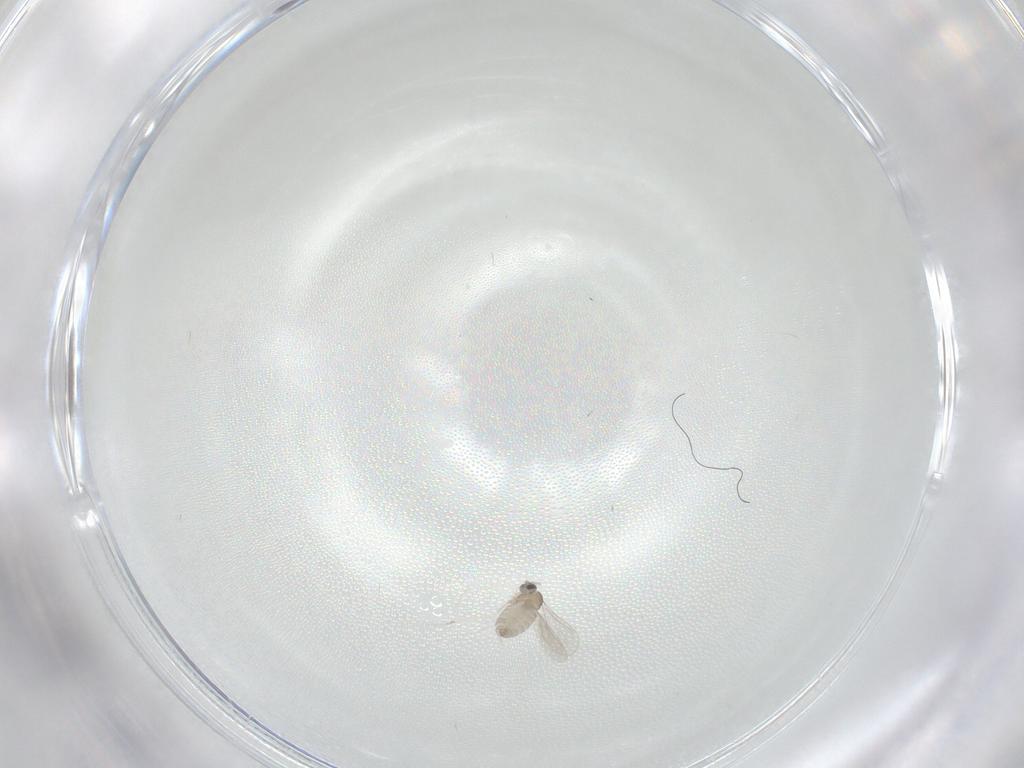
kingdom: Animalia
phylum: Arthropoda
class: Insecta
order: Diptera
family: Cecidomyiidae
